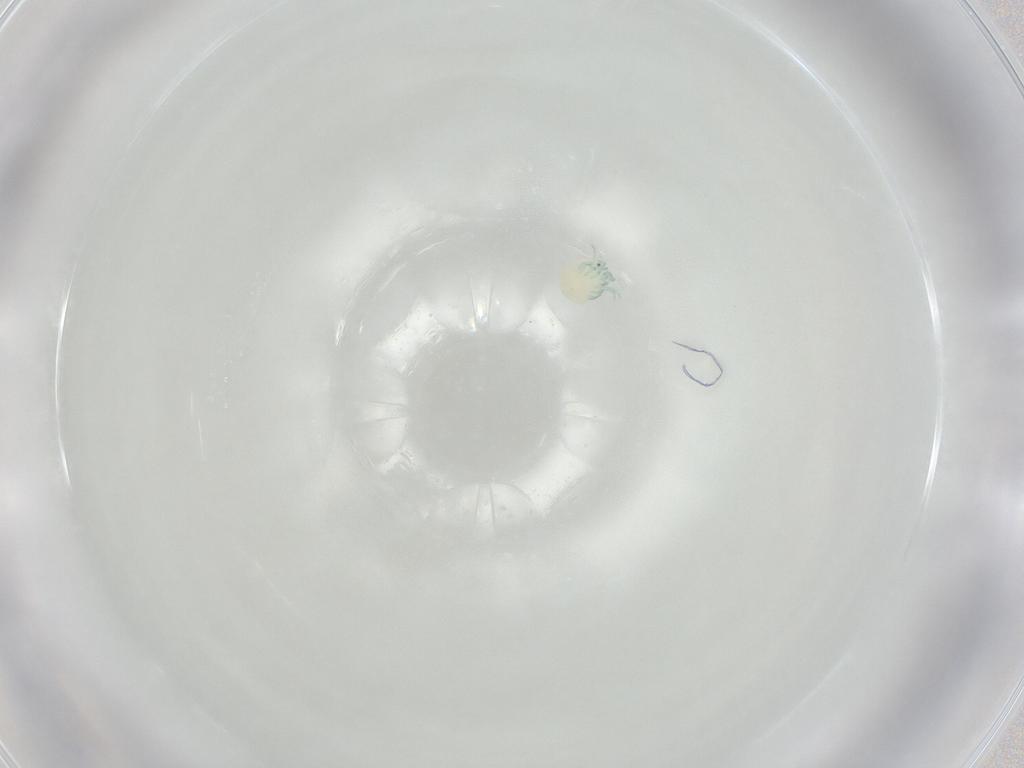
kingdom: Animalia
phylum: Arthropoda
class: Arachnida
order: Trombidiformes
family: Arrenuridae
